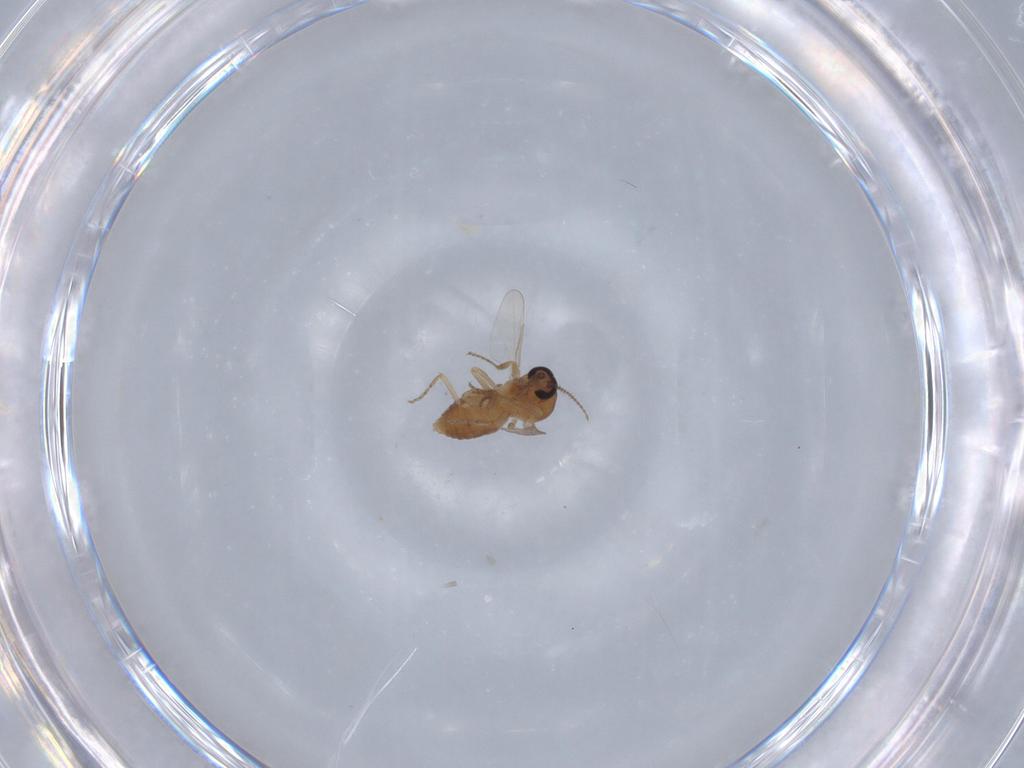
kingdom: Animalia
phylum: Arthropoda
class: Insecta
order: Diptera
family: Ceratopogonidae
